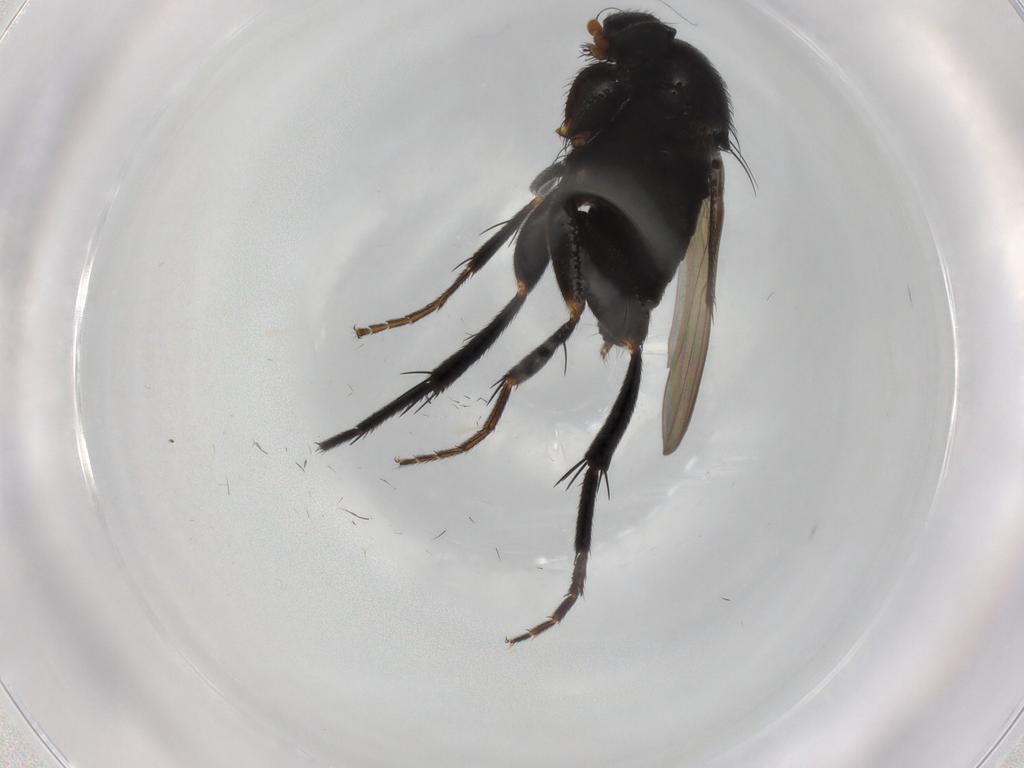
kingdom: Animalia
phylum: Arthropoda
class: Insecta
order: Diptera
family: Phoridae
